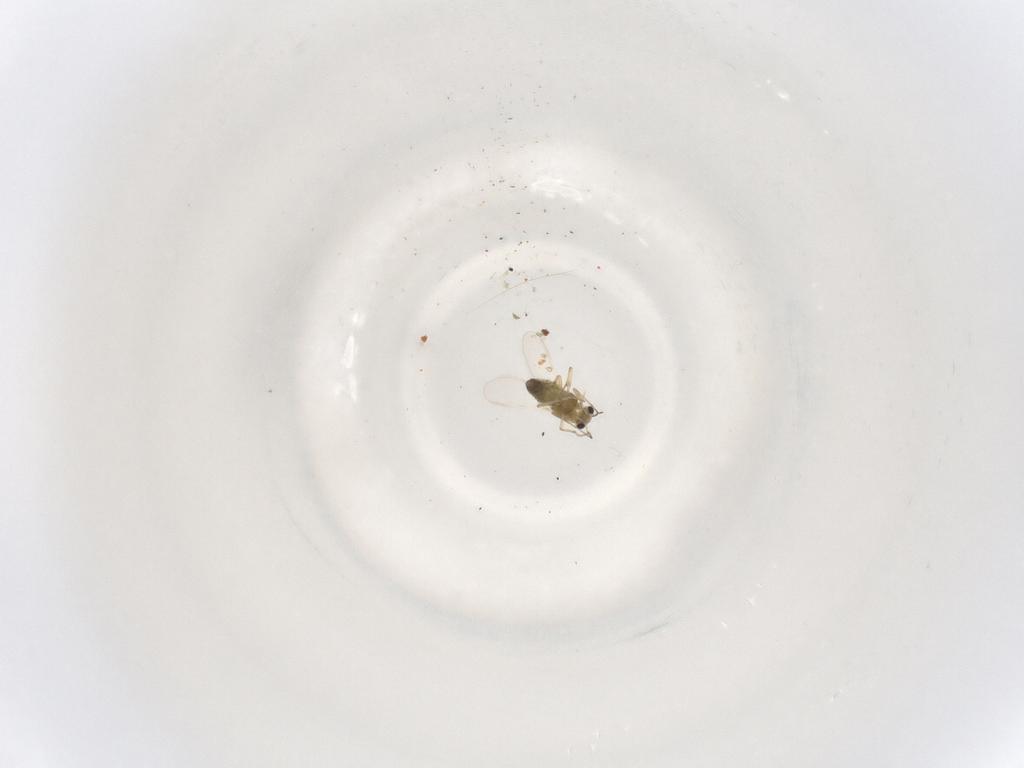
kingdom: Animalia
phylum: Arthropoda
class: Insecta
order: Diptera
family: Chironomidae
